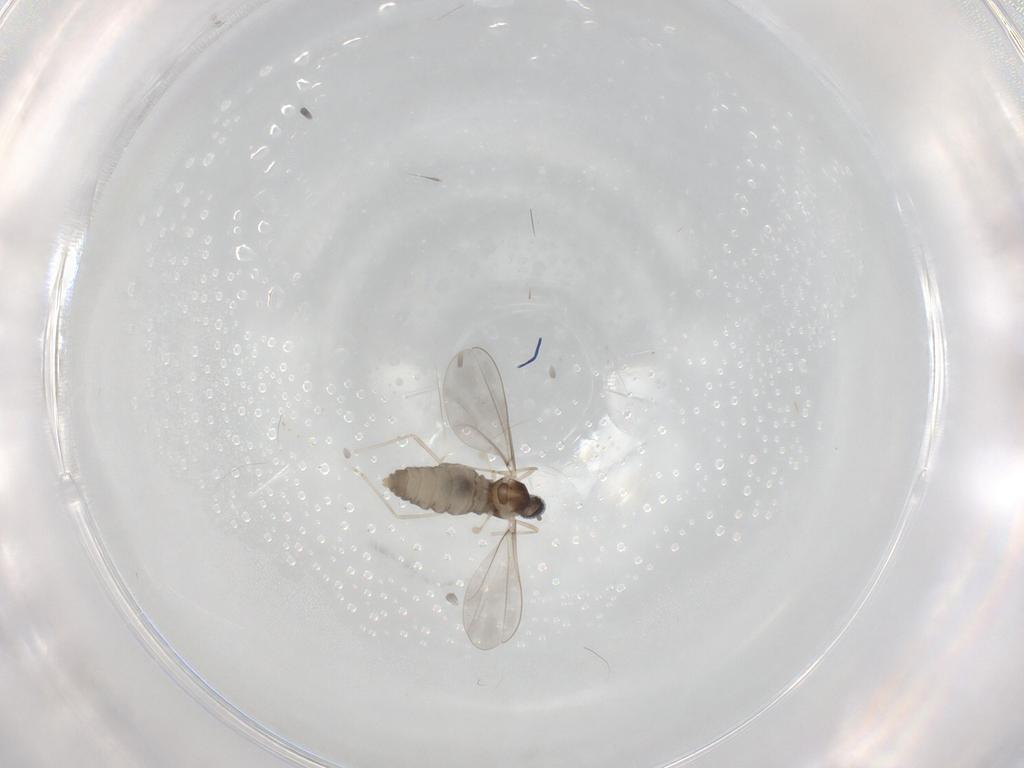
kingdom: Animalia
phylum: Arthropoda
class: Insecta
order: Diptera
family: Cecidomyiidae
